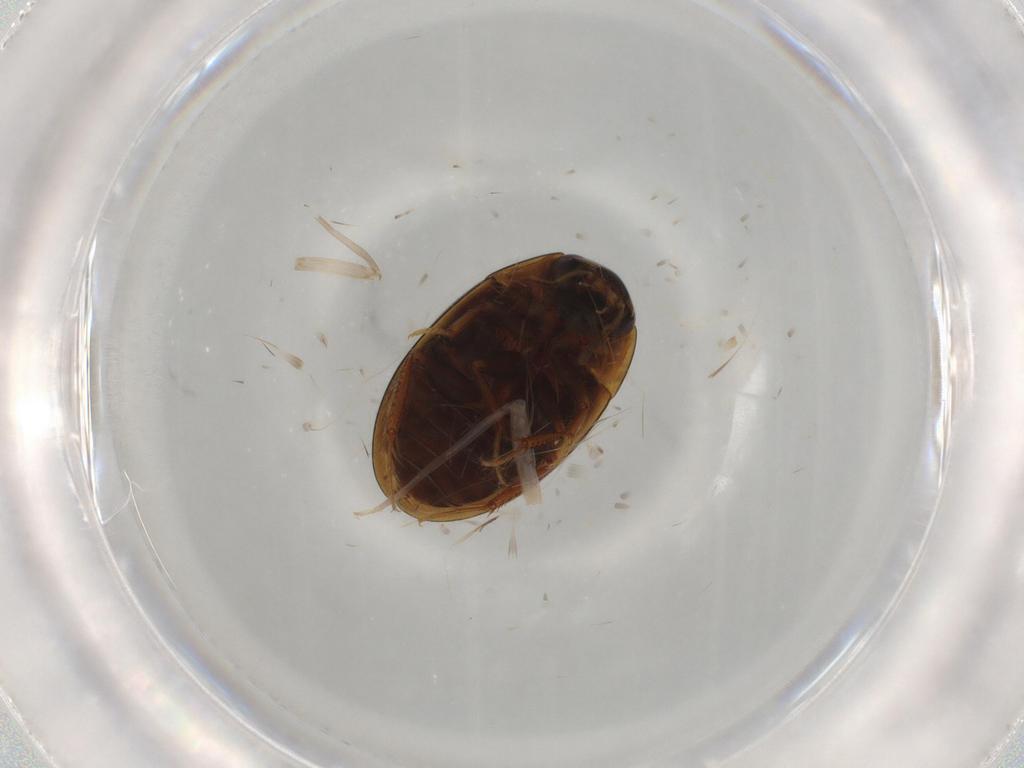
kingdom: Animalia
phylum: Arthropoda
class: Insecta
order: Coleoptera
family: Hydrophilidae
